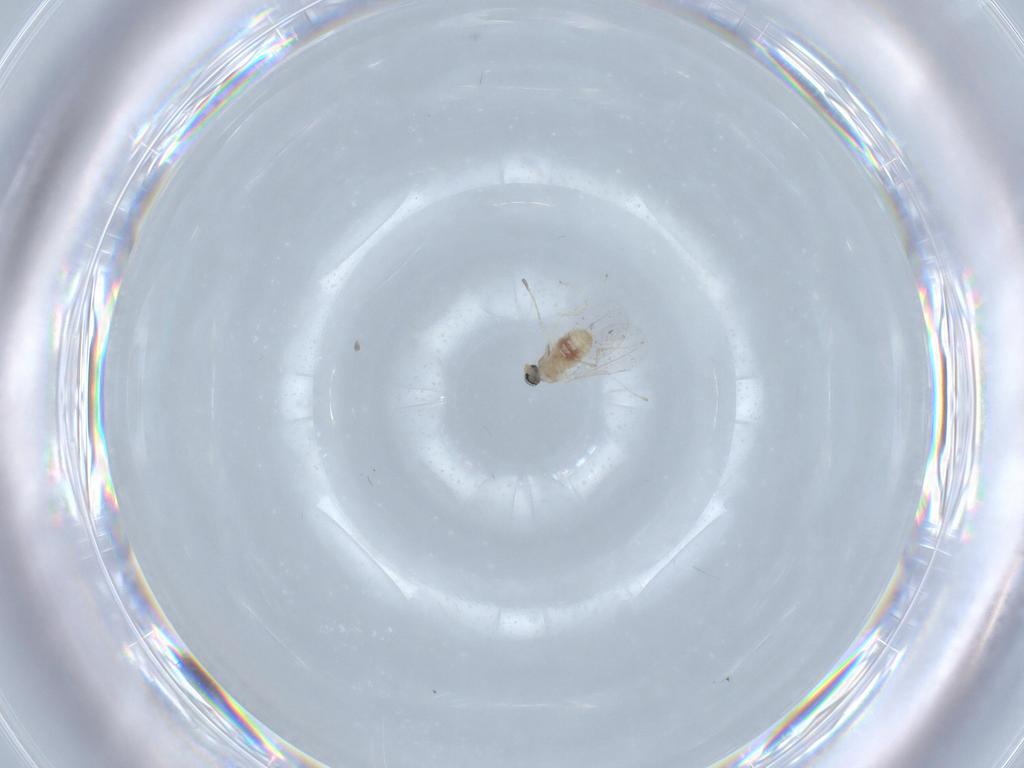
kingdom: Animalia
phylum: Arthropoda
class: Insecta
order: Diptera
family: Cecidomyiidae
